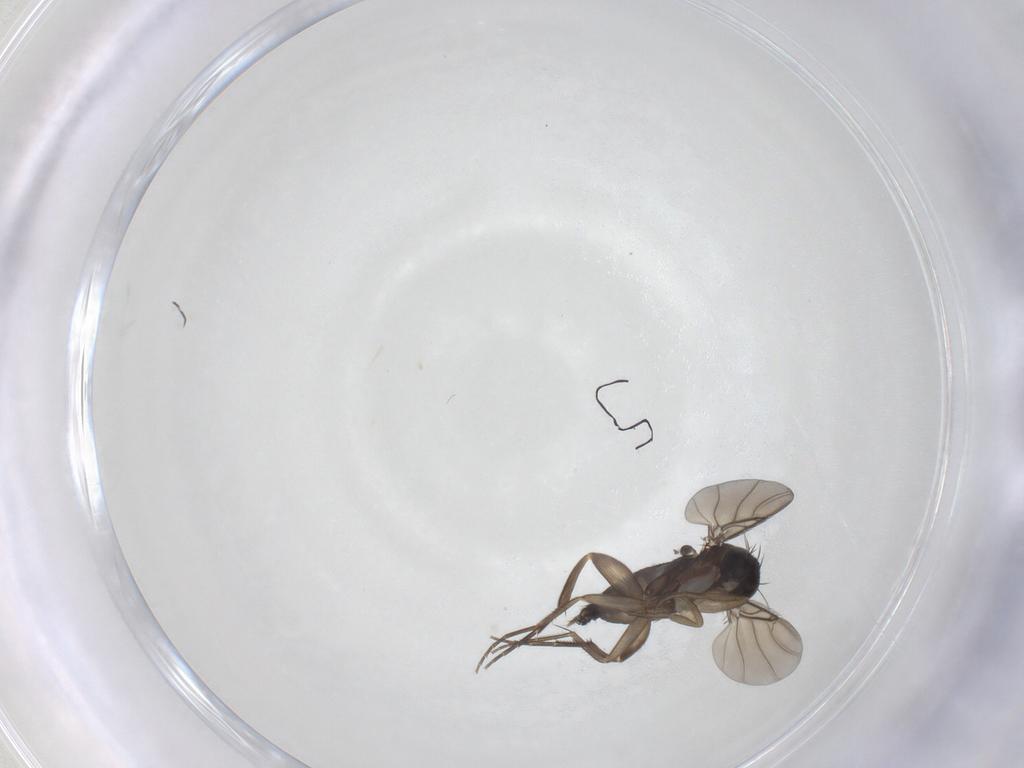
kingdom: Animalia
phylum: Arthropoda
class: Insecta
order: Diptera
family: Phoridae
